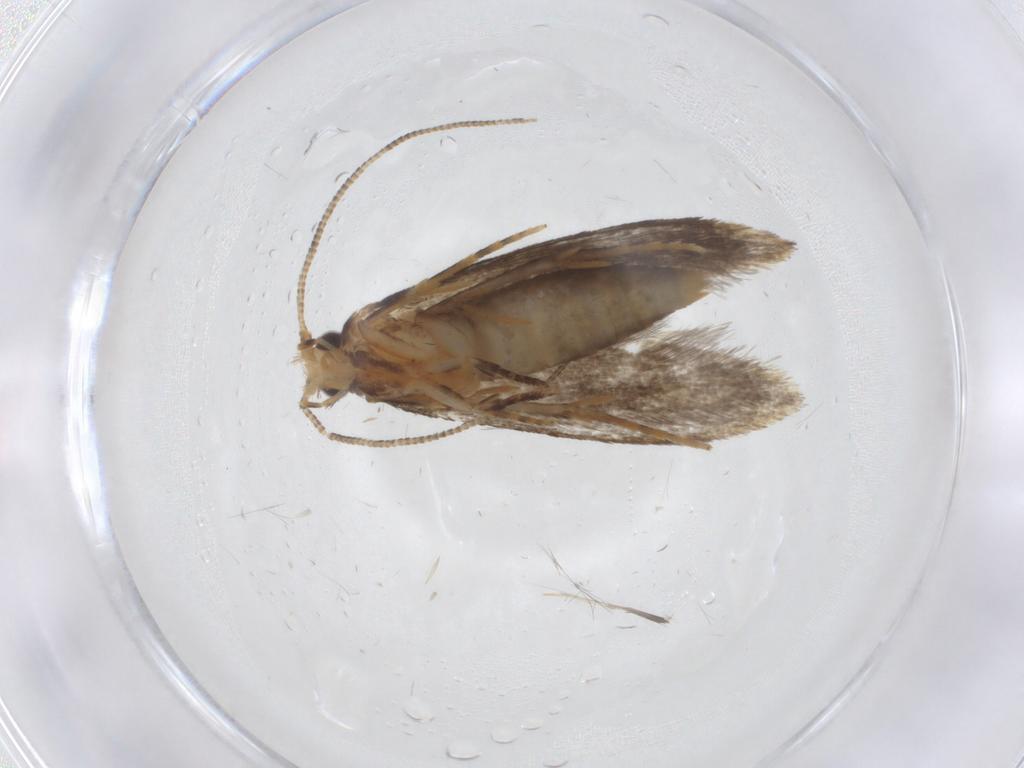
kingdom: Animalia
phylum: Arthropoda
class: Insecta
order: Lepidoptera
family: Tineidae
